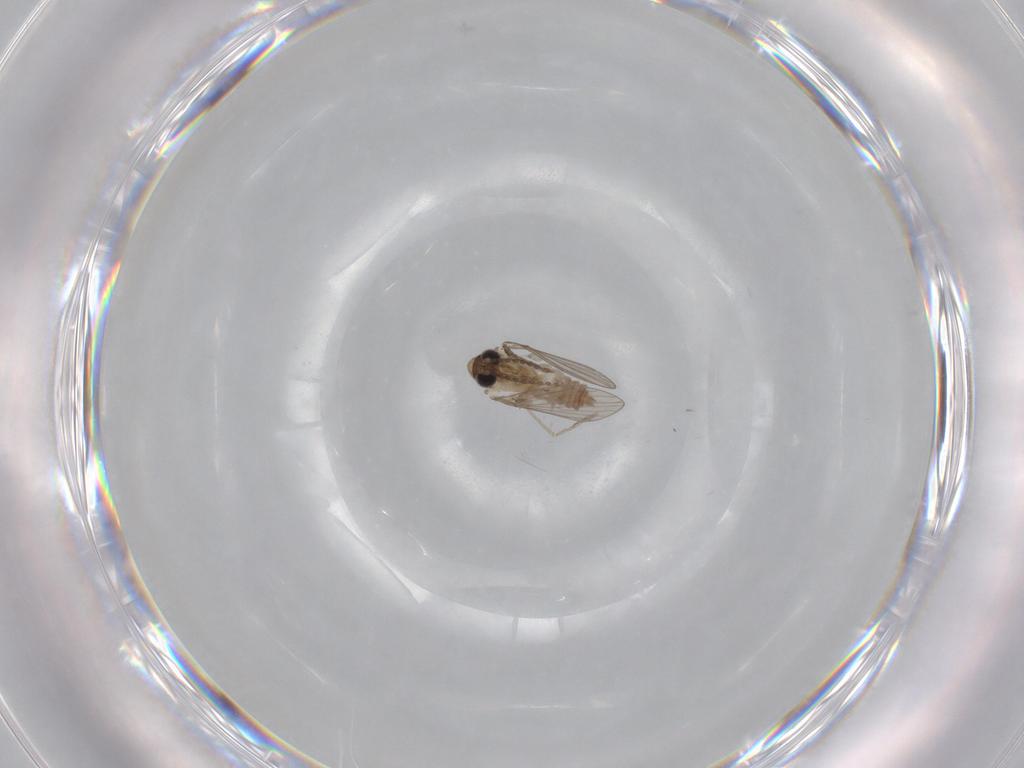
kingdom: Animalia
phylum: Arthropoda
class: Insecta
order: Diptera
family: Psychodidae
